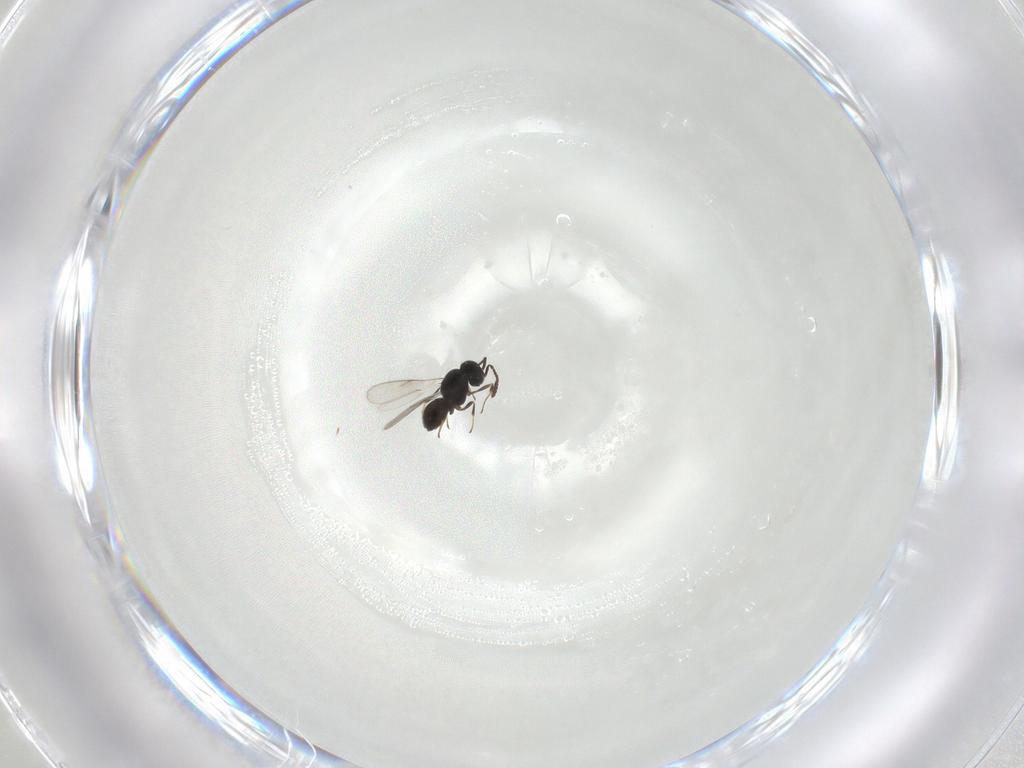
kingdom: Animalia
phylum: Arthropoda
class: Insecta
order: Hymenoptera
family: Scelionidae
